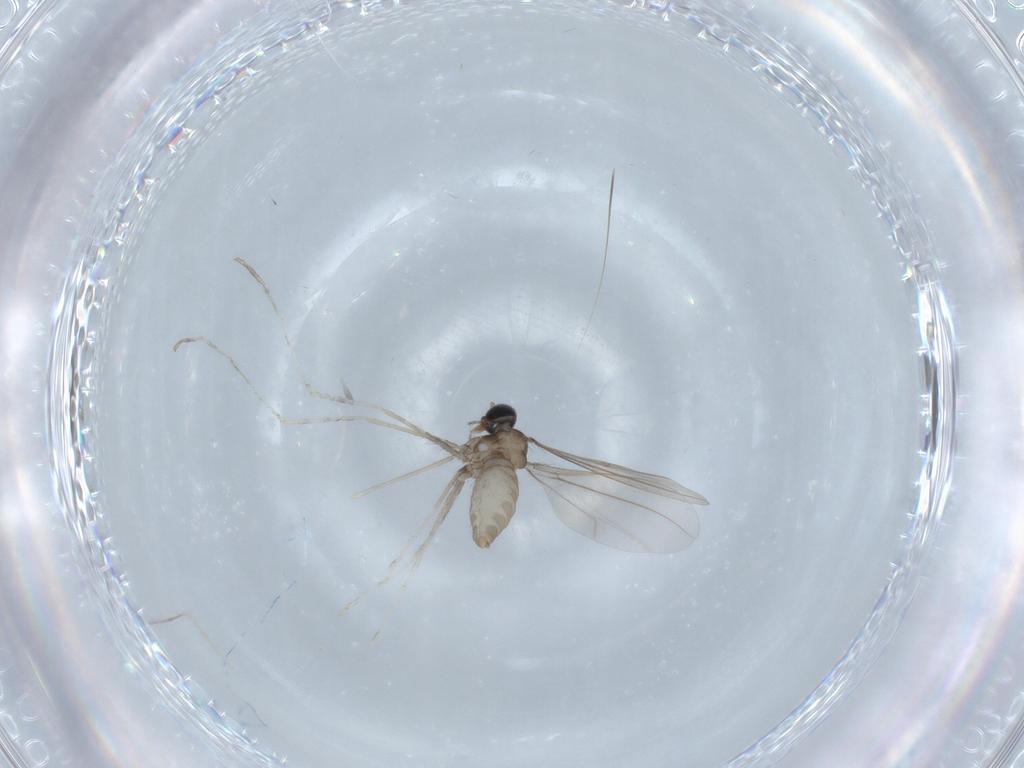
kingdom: Animalia
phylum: Arthropoda
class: Insecta
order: Diptera
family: Cecidomyiidae
